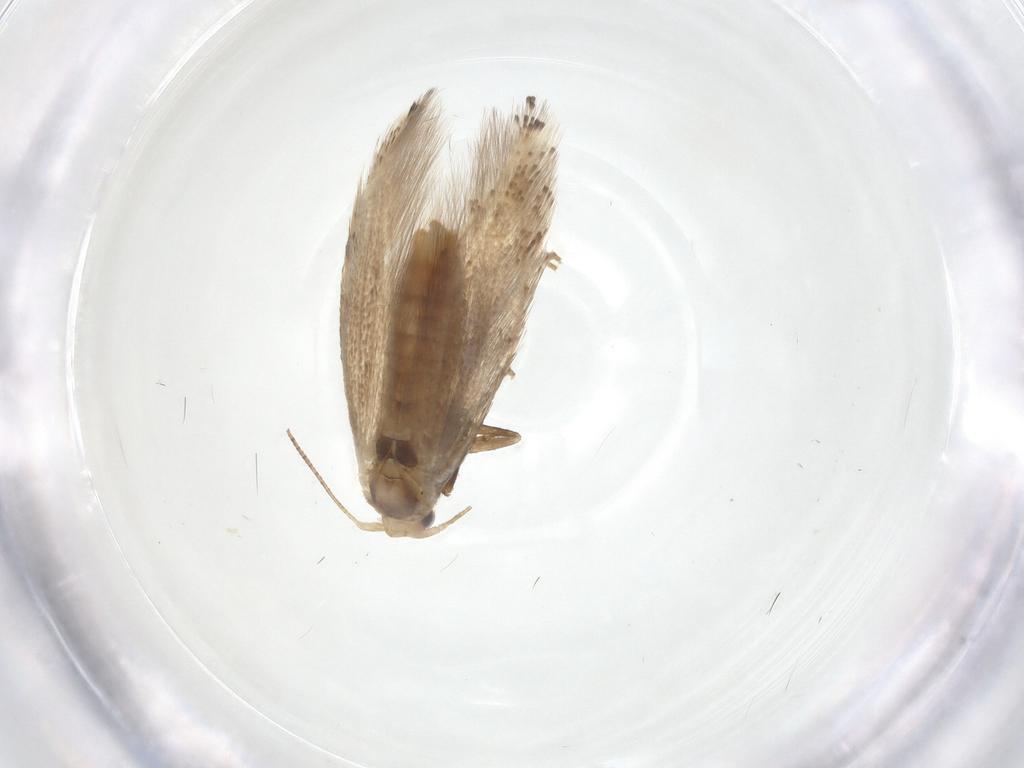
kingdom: Animalia
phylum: Arthropoda
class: Insecta
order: Lepidoptera
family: Bucculatricidae
